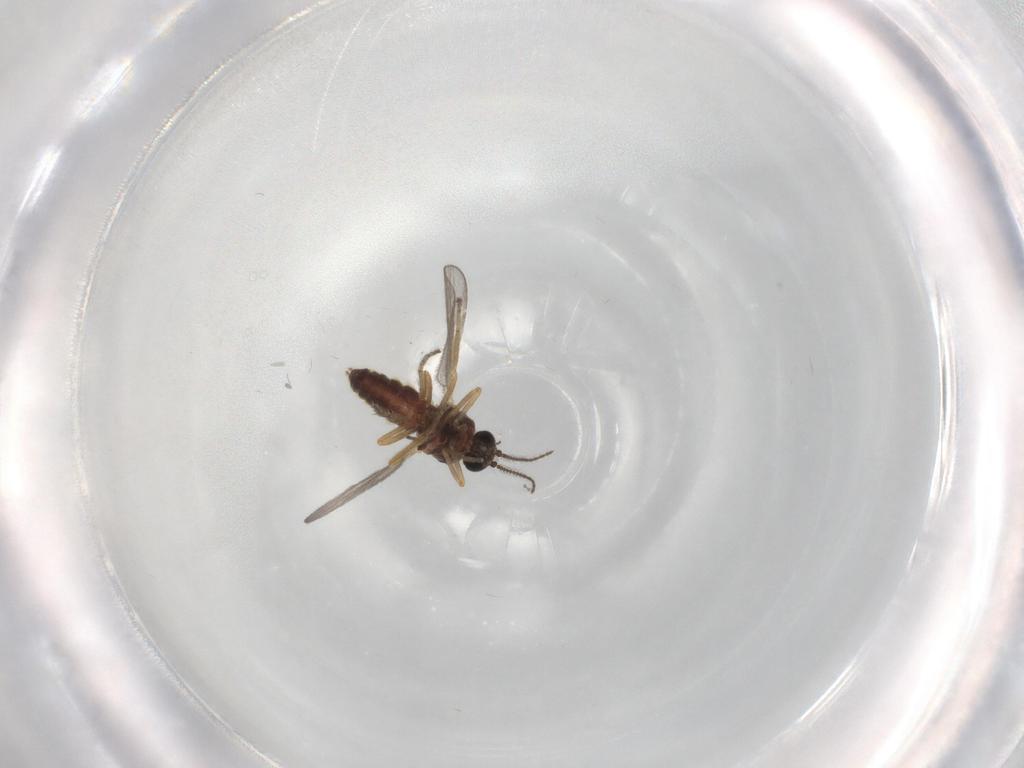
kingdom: Animalia
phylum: Arthropoda
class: Insecta
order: Diptera
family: Ceratopogonidae
